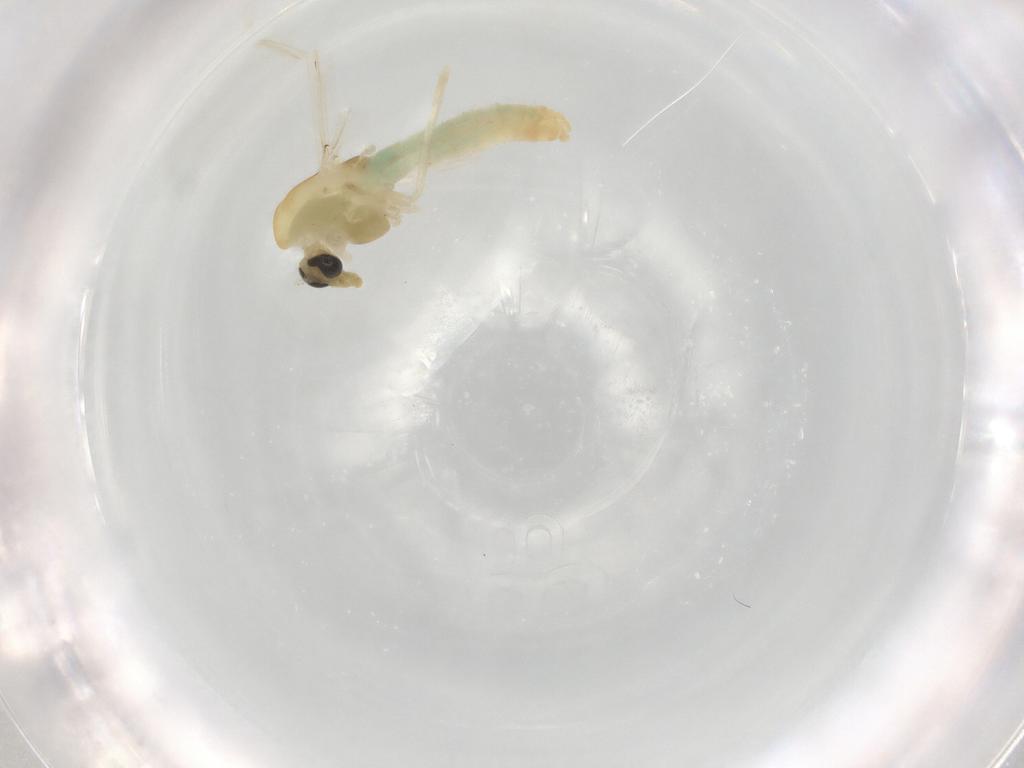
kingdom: Animalia
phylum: Arthropoda
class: Insecta
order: Diptera
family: Chironomidae
